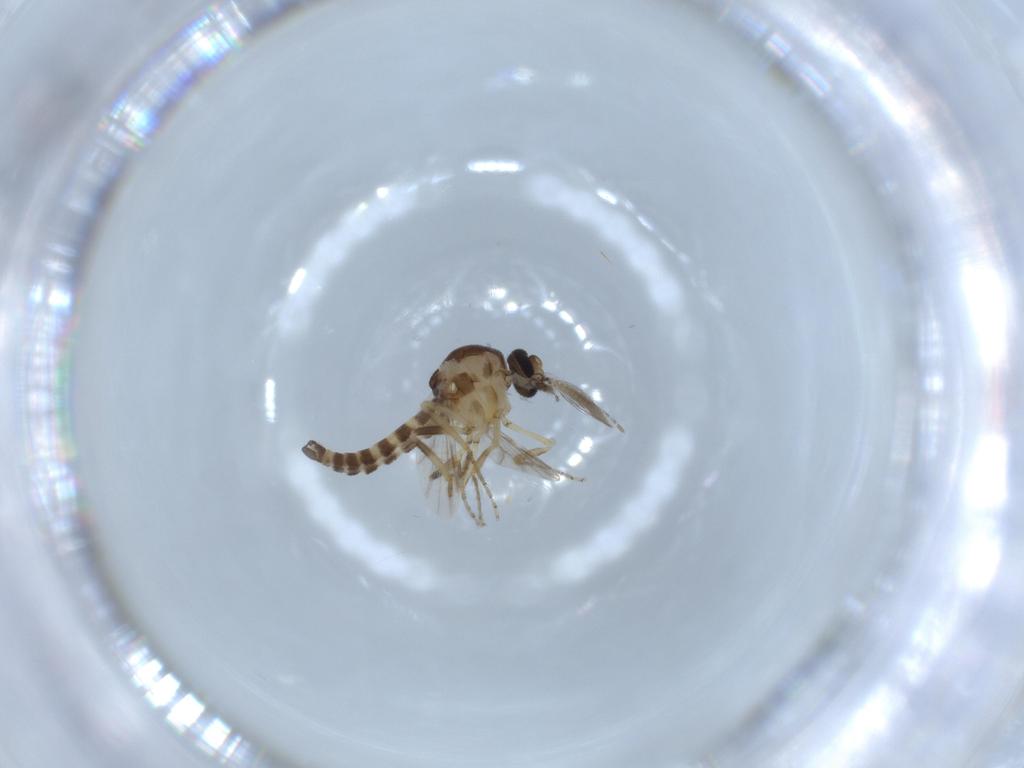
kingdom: Animalia
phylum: Arthropoda
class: Insecta
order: Diptera
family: Ceratopogonidae
